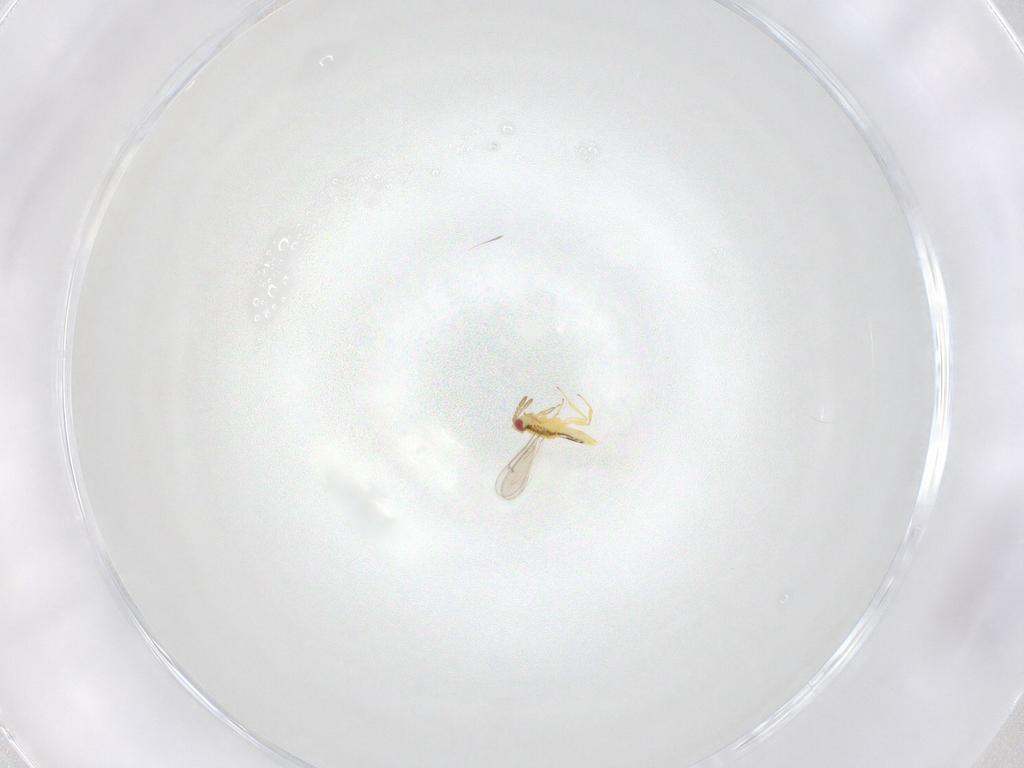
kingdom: Animalia
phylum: Arthropoda
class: Insecta
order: Hymenoptera
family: Aphelinidae
